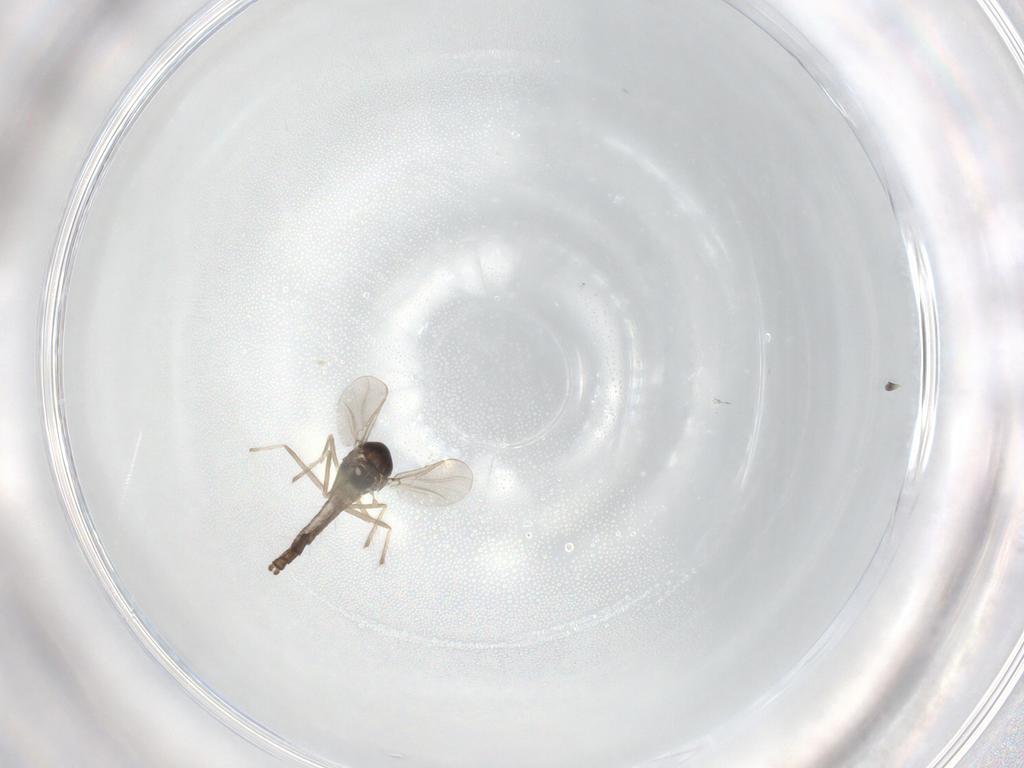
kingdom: Animalia
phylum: Arthropoda
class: Insecta
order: Diptera
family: Chironomidae
